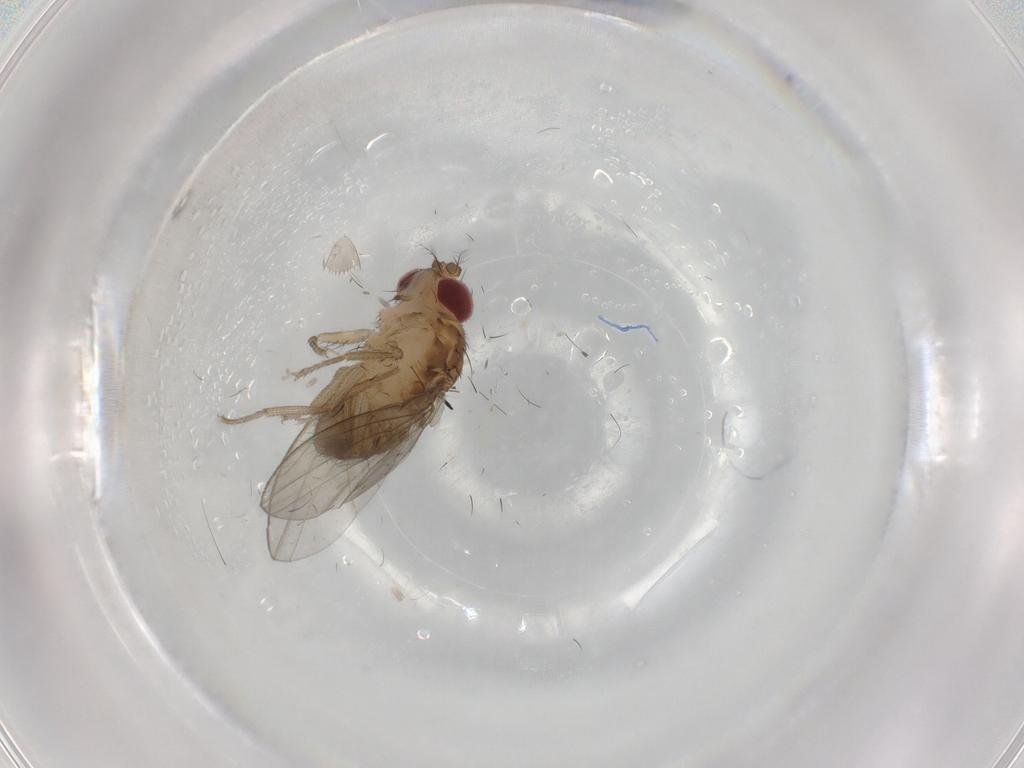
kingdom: Animalia
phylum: Arthropoda
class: Insecta
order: Diptera
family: Drosophilidae
